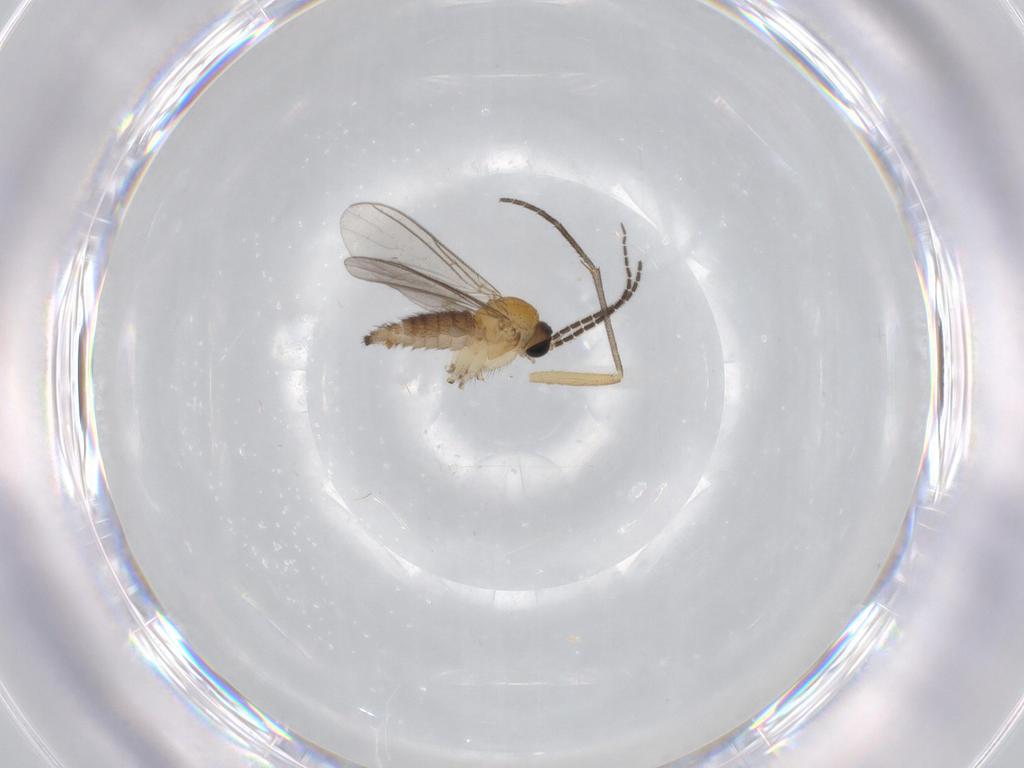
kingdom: Animalia
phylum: Arthropoda
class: Insecta
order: Diptera
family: Sciaridae
